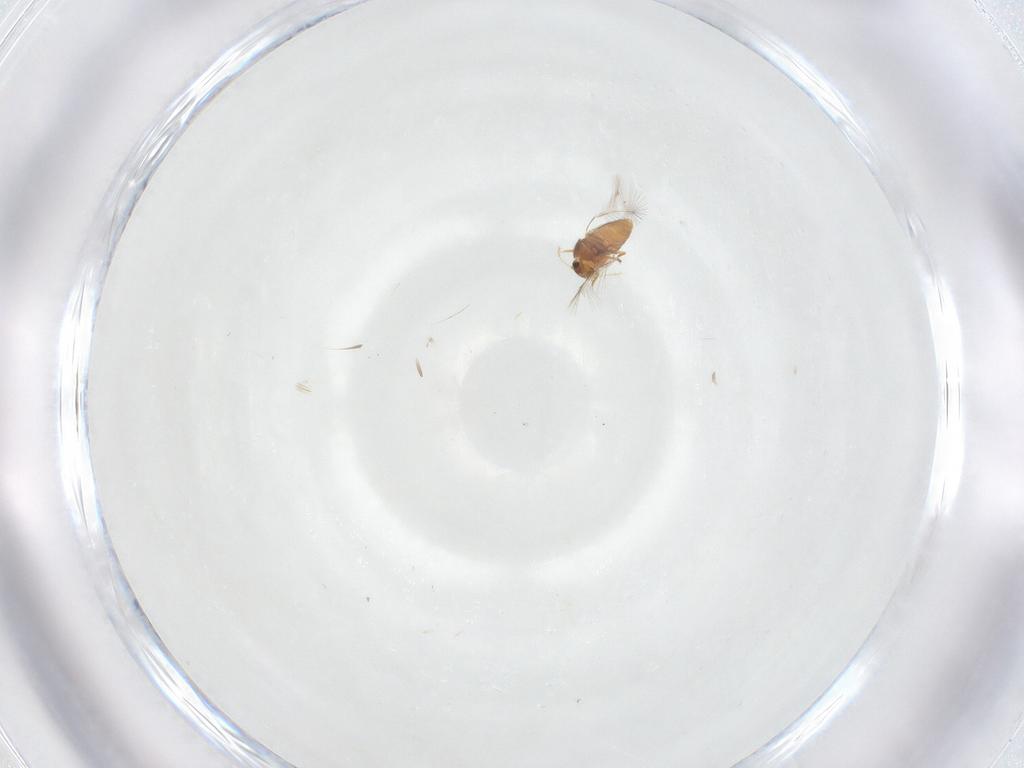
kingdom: Animalia
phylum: Arthropoda
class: Insecta
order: Coleoptera
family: Ptiliidae
